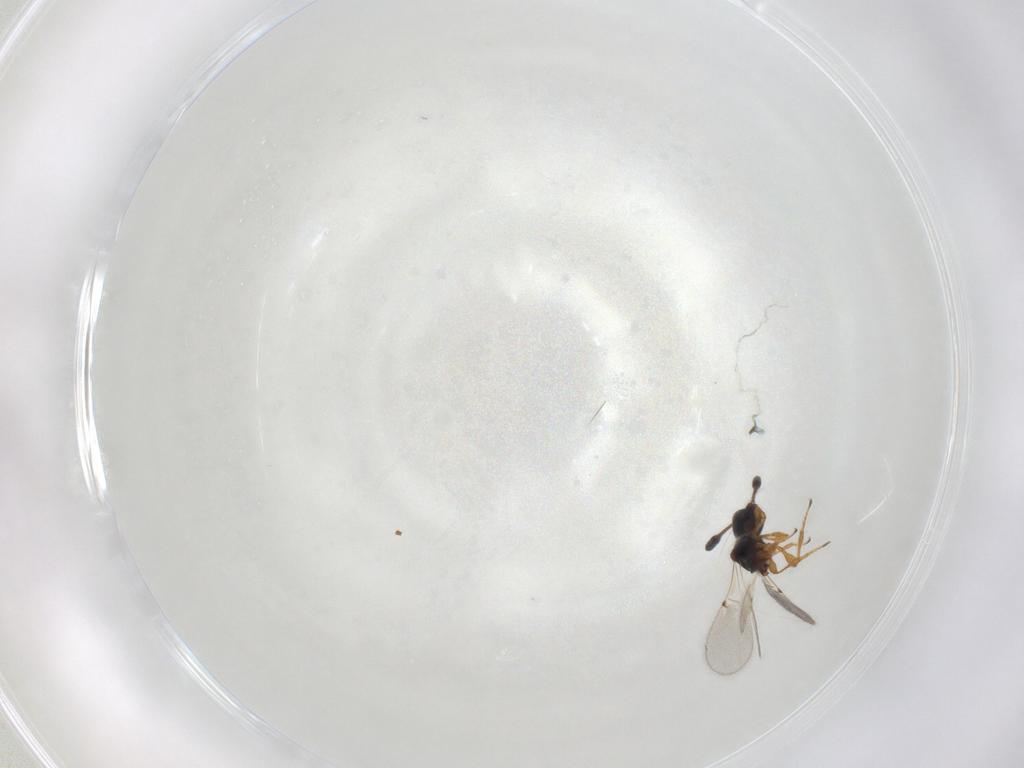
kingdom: Animalia
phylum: Arthropoda
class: Insecta
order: Hymenoptera
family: Diapriidae
